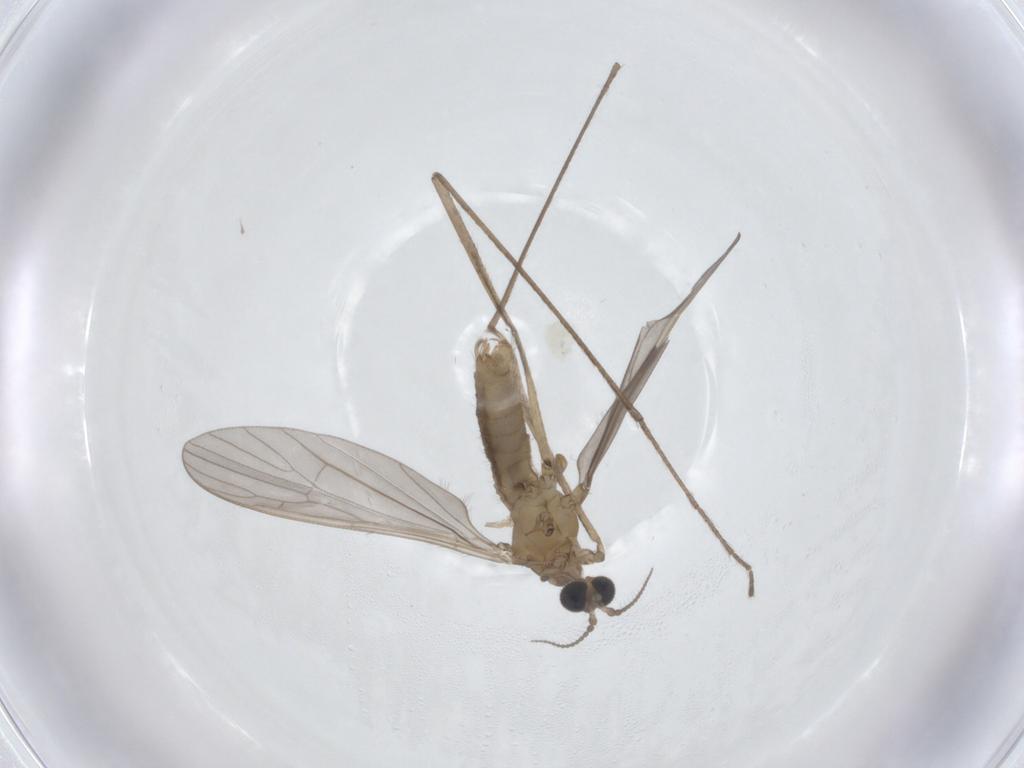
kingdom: Animalia
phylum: Arthropoda
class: Insecta
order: Diptera
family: Limoniidae
